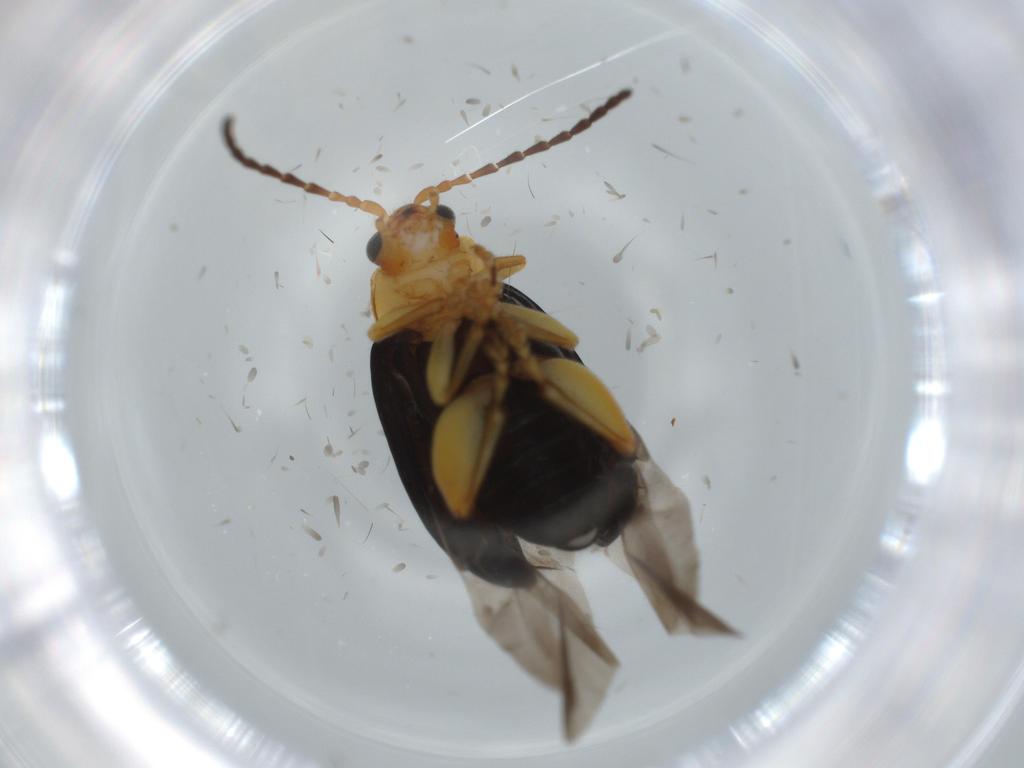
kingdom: Animalia
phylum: Arthropoda
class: Insecta
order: Coleoptera
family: Chrysomelidae
